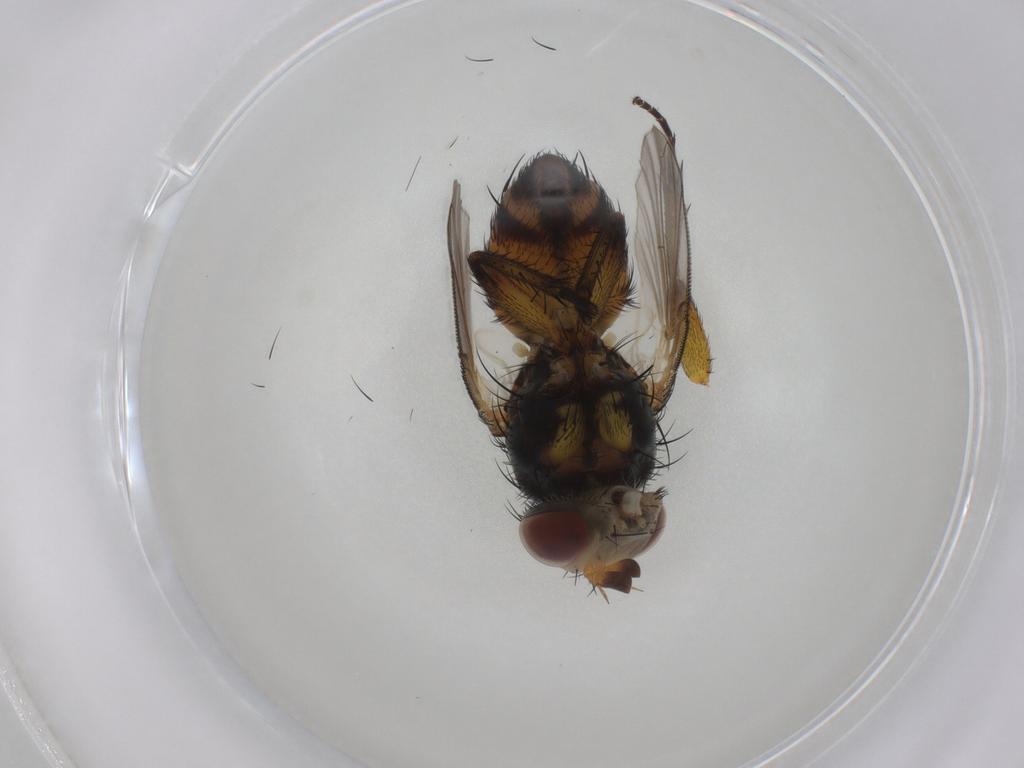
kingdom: Animalia
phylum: Arthropoda
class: Insecta
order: Diptera
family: Tachinidae
